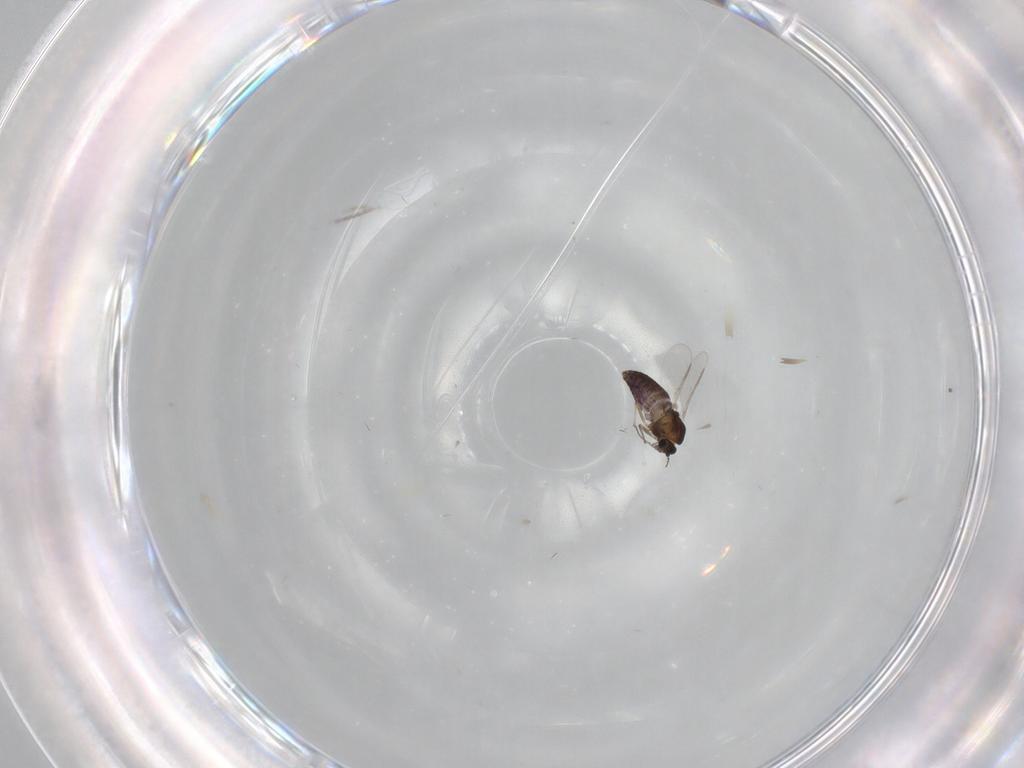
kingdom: Animalia
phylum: Arthropoda
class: Insecta
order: Diptera
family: Chironomidae
